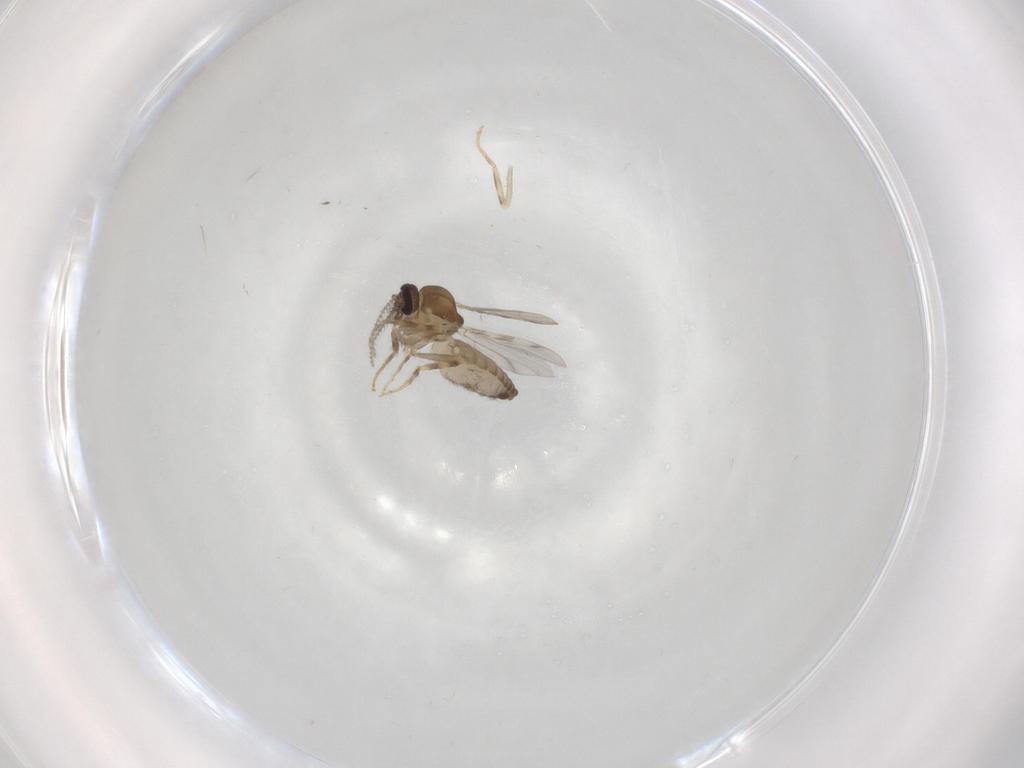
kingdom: Animalia
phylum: Arthropoda
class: Insecta
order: Diptera
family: Ceratopogonidae
